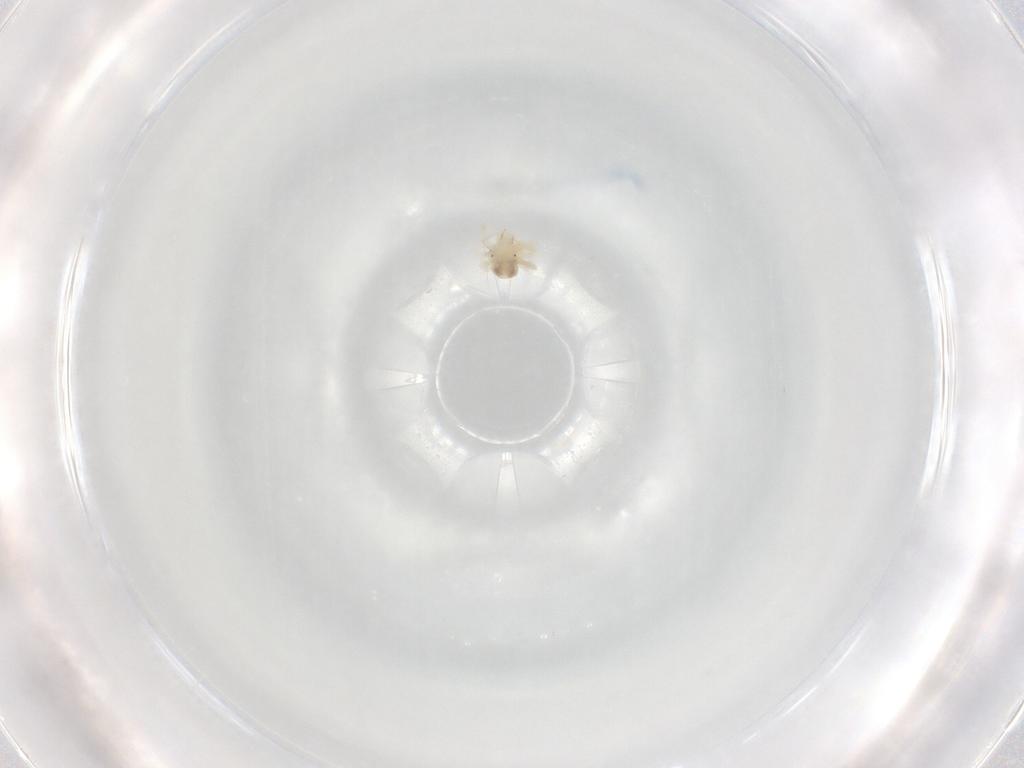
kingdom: Animalia
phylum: Arthropoda
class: Arachnida
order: Trombidiformes
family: Anystidae
